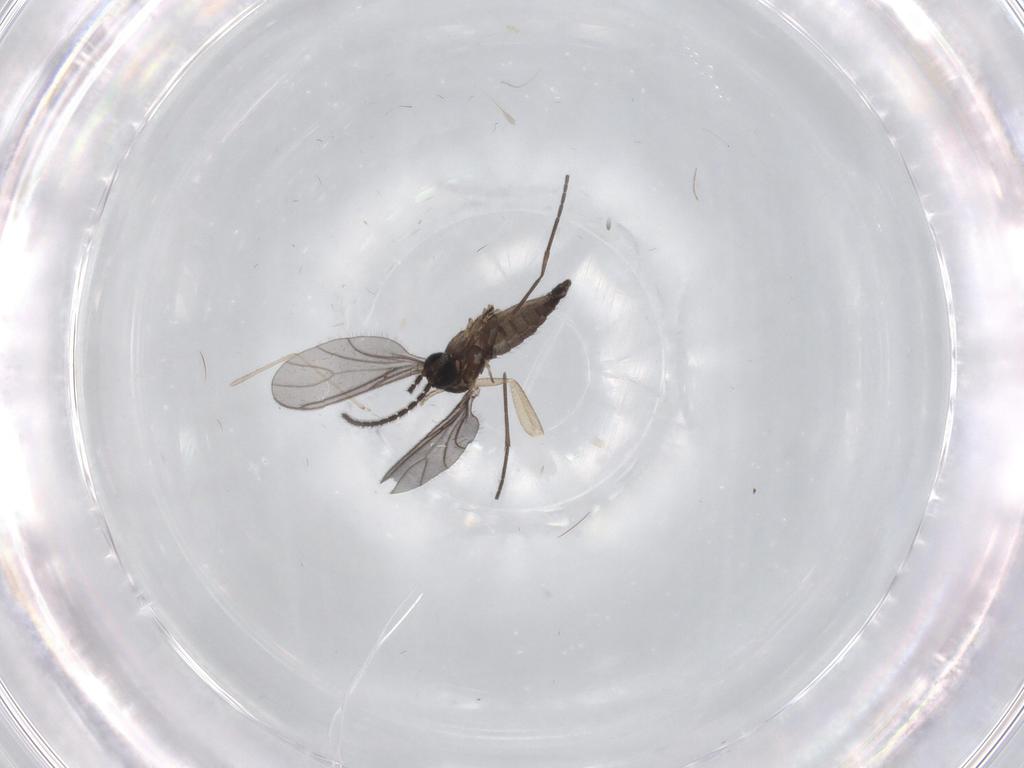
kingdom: Animalia
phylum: Arthropoda
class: Insecta
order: Diptera
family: Sciaridae
